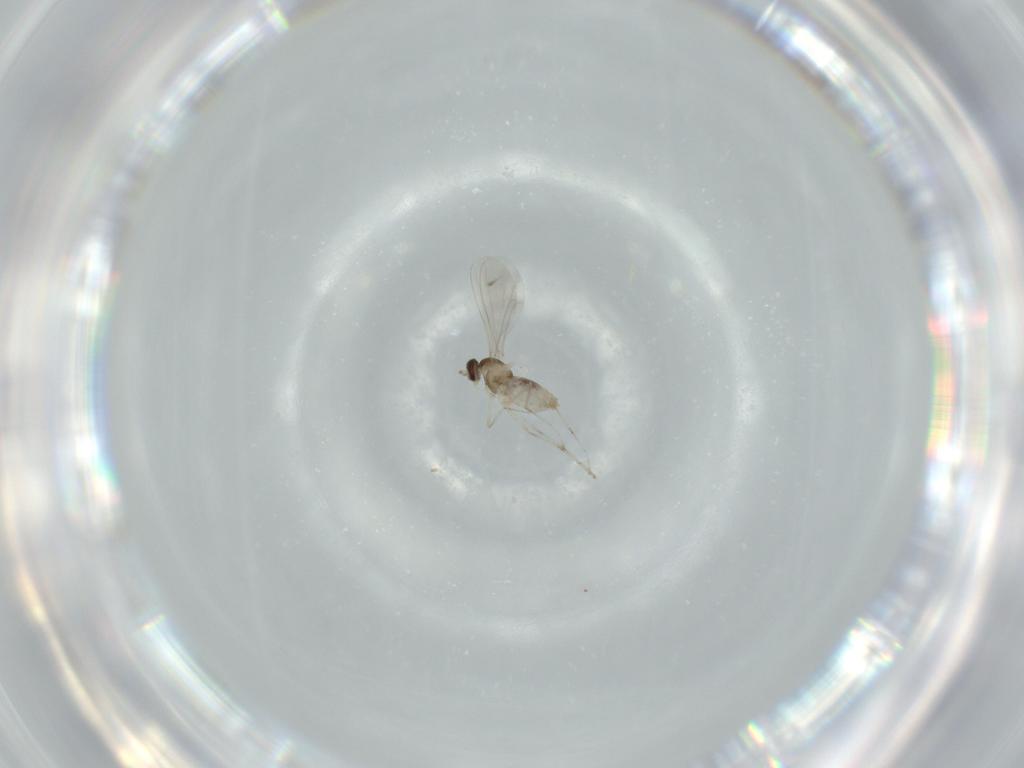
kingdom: Animalia
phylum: Arthropoda
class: Insecta
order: Diptera
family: Cecidomyiidae
